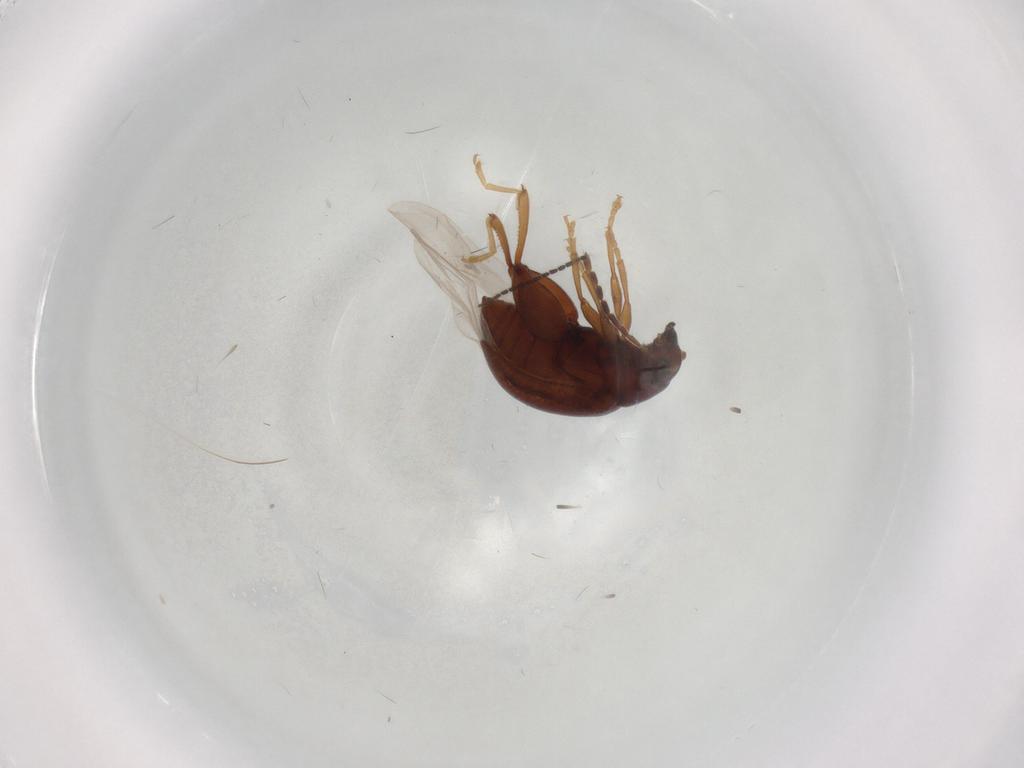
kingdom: Animalia
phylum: Arthropoda
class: Insecta
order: Coleoptera
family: Chrysomelidae
